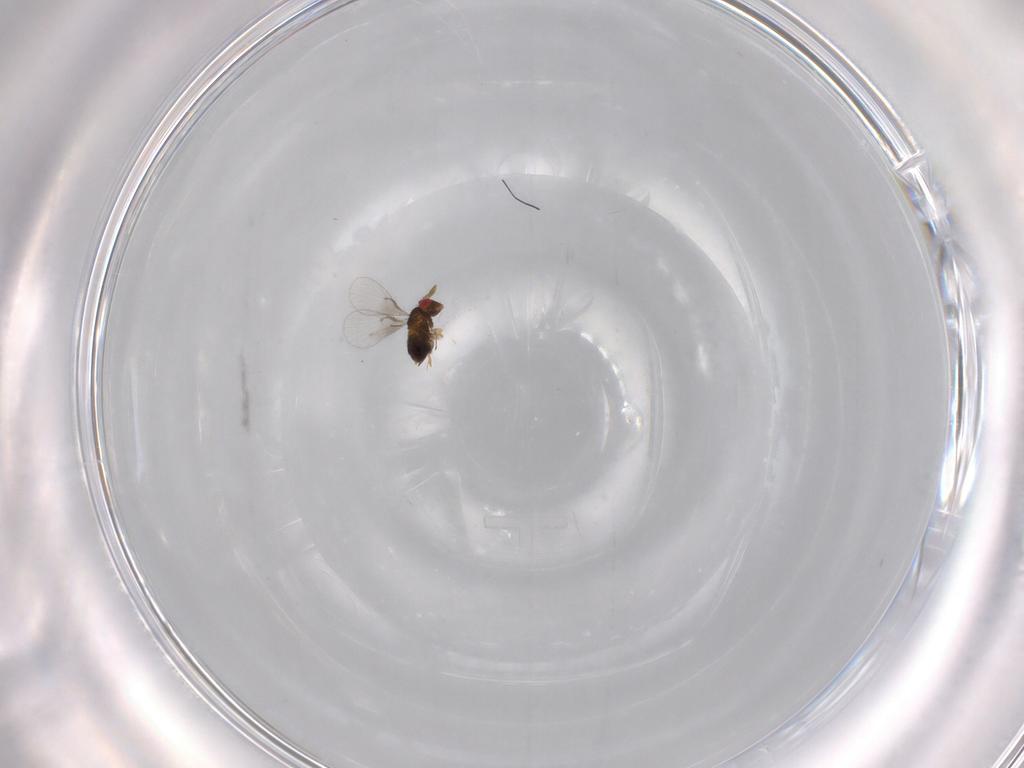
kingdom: Animalia
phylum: Arthropoda
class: Insecta
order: Hymenoptera
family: Trichogrammatidae
